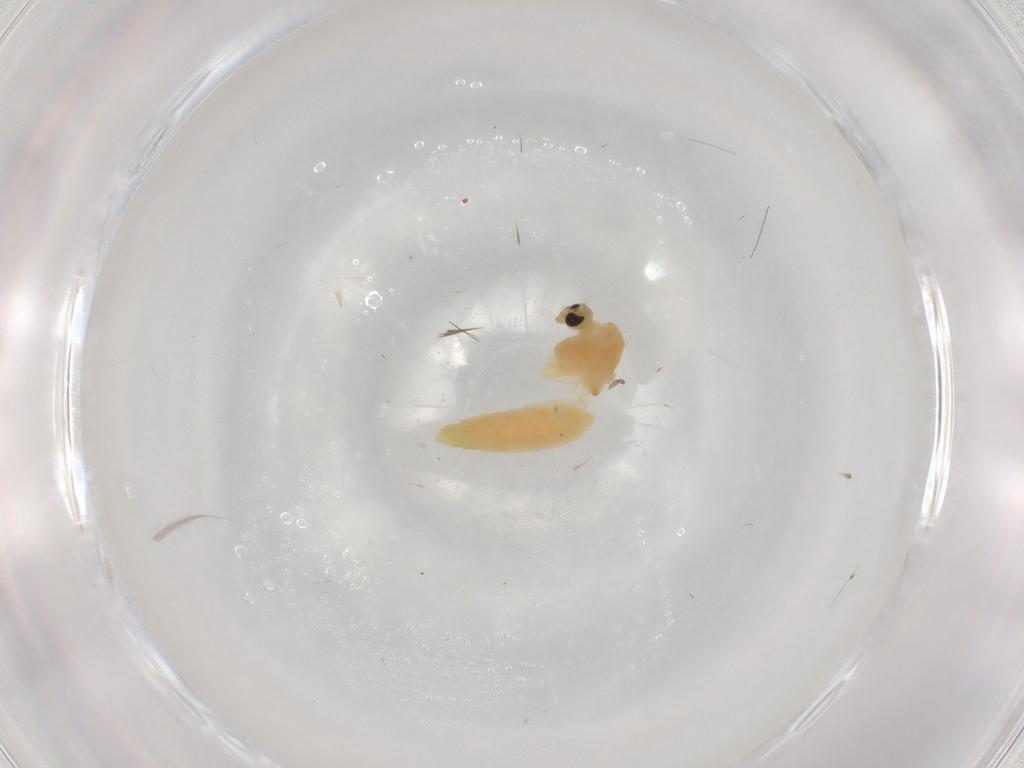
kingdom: Animalia
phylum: Arthropoda
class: Insecta
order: Diptera
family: Chironomidae
